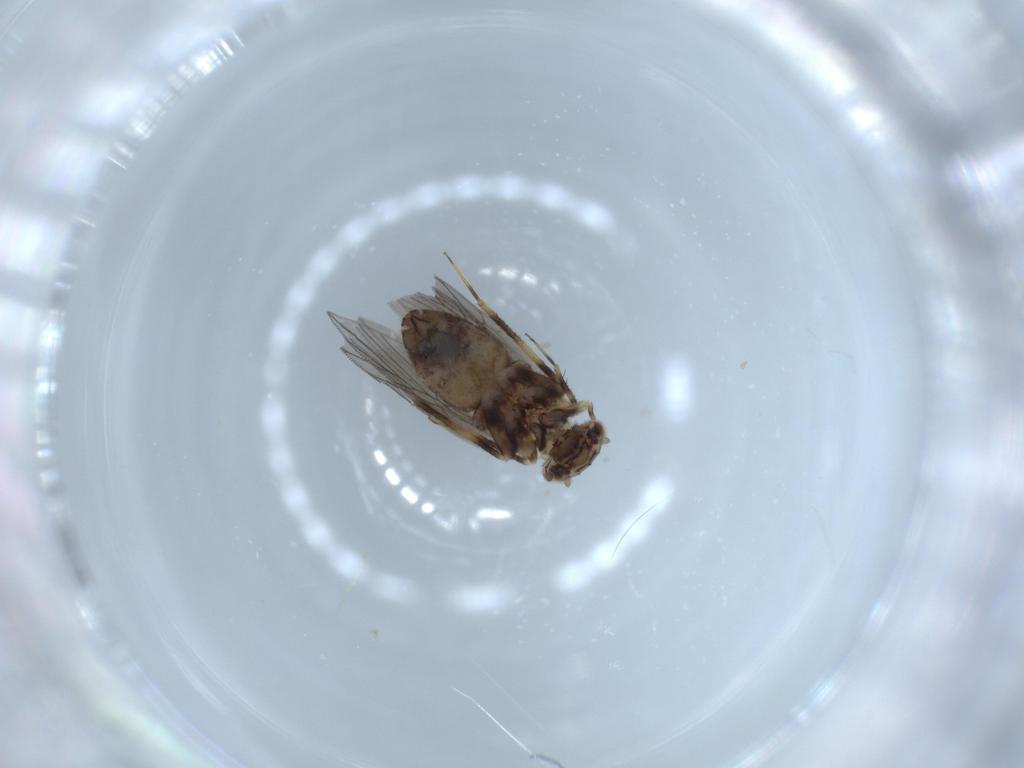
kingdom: Animalia
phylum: Arthropoda
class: Insecta
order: Psocodea
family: Lepidopsocidae
